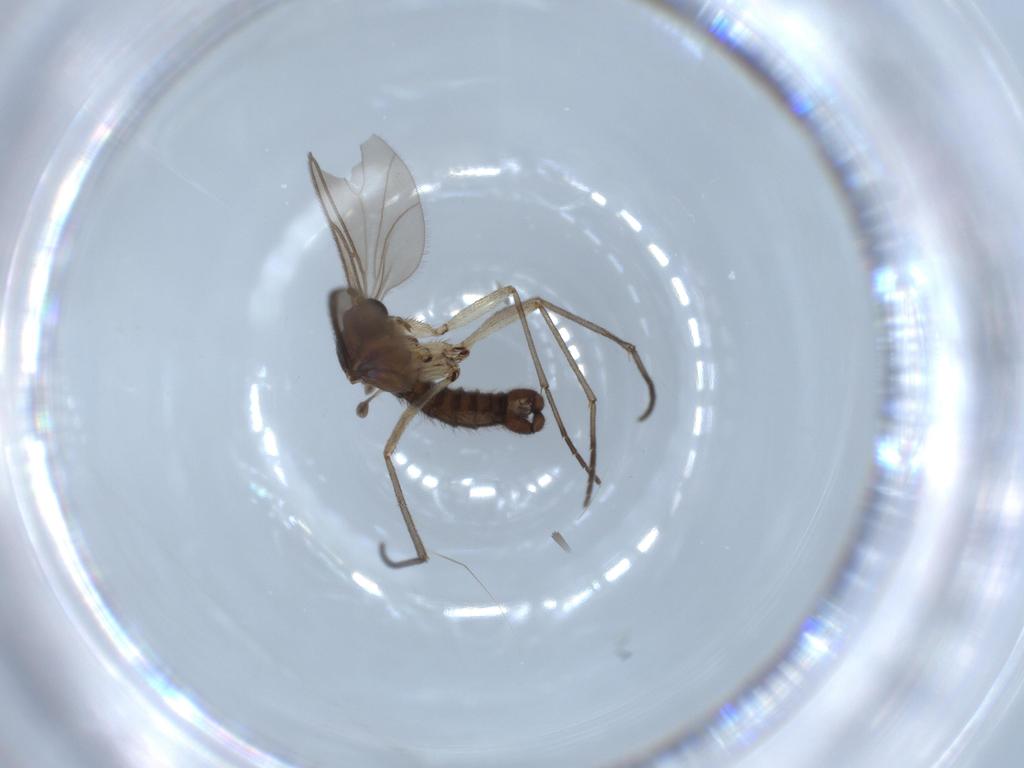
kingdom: Animalia
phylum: Arthropoda
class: Insecta
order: Diptera
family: Sciaridae
